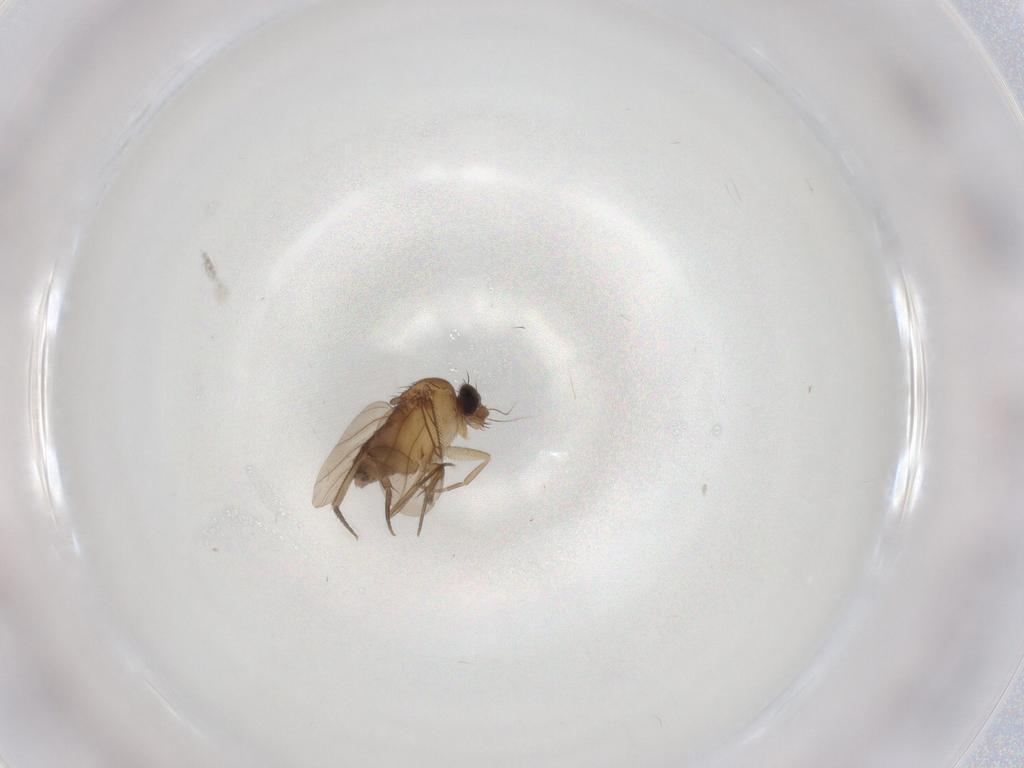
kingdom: Animalia
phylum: Arthropoda
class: Insecta
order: Diptera
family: Phoridae
